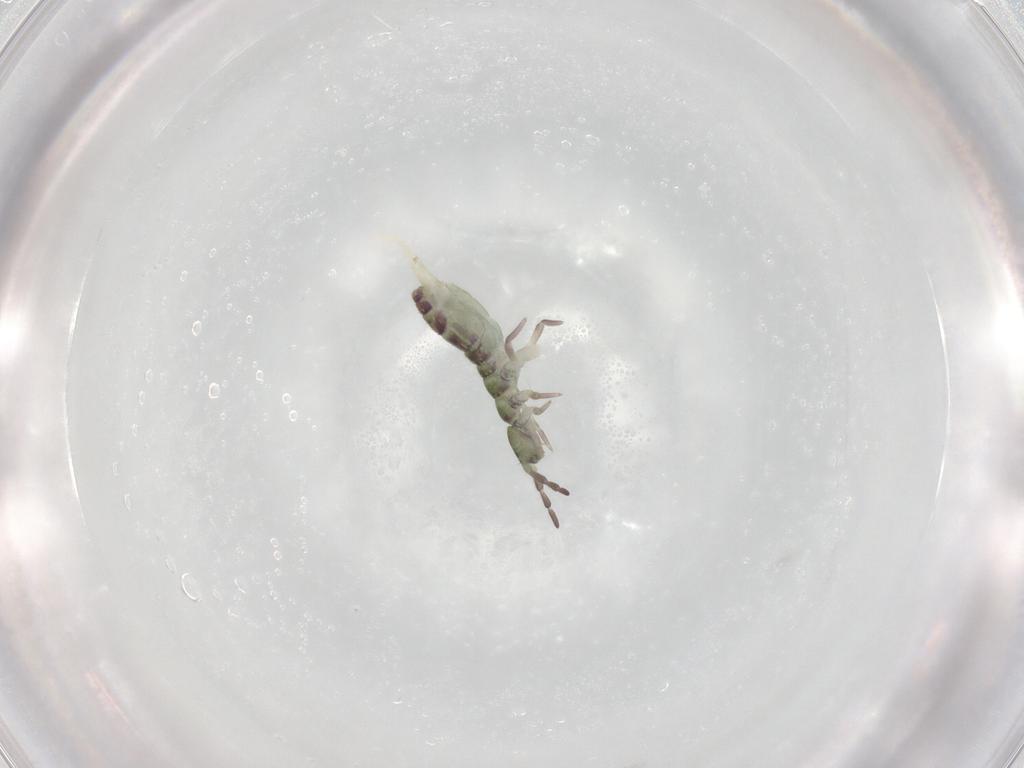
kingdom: Animalia
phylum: Arthropoda
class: Collembola
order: Entomobryomorpha
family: Isotomidae
